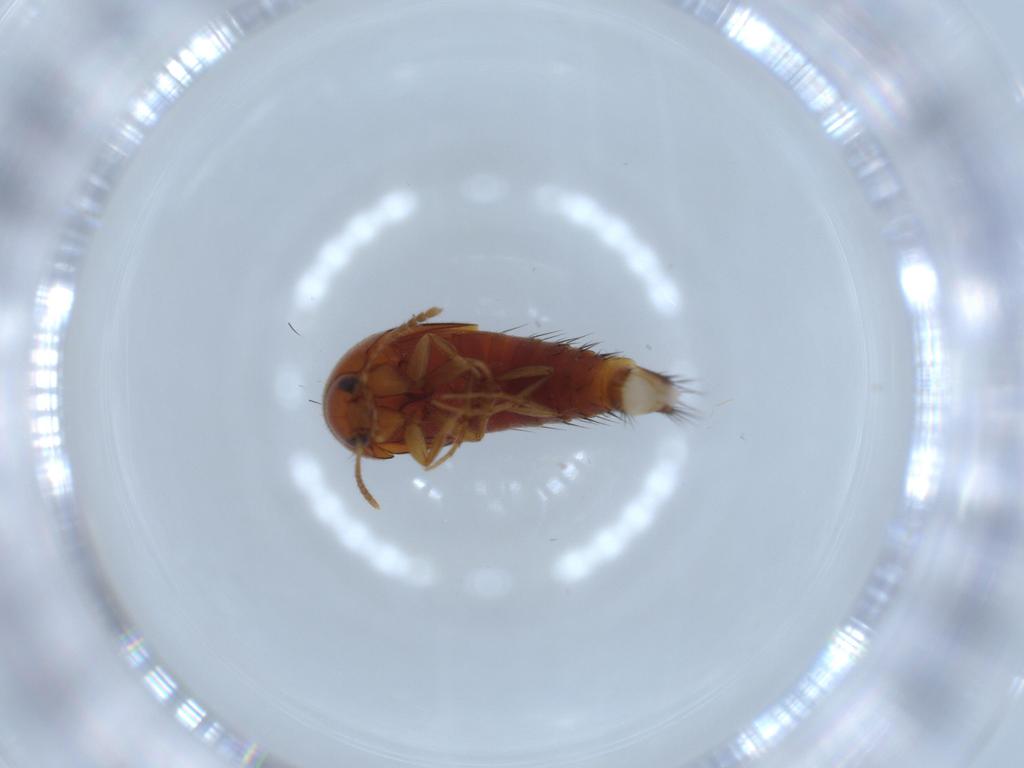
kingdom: Animalia
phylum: Arthropoda
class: Insecta
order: Coleoptera
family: Staphylinidae
